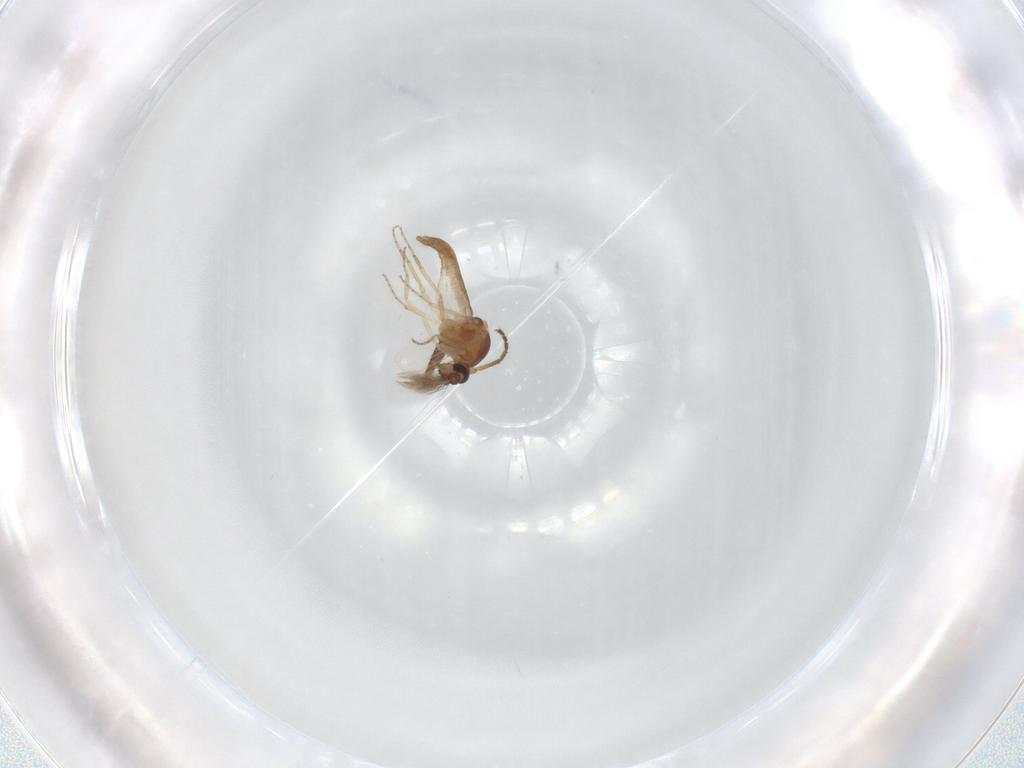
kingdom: Animalia
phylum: Arthropoda
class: Insecta
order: Diptera
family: Dolichopodidae
